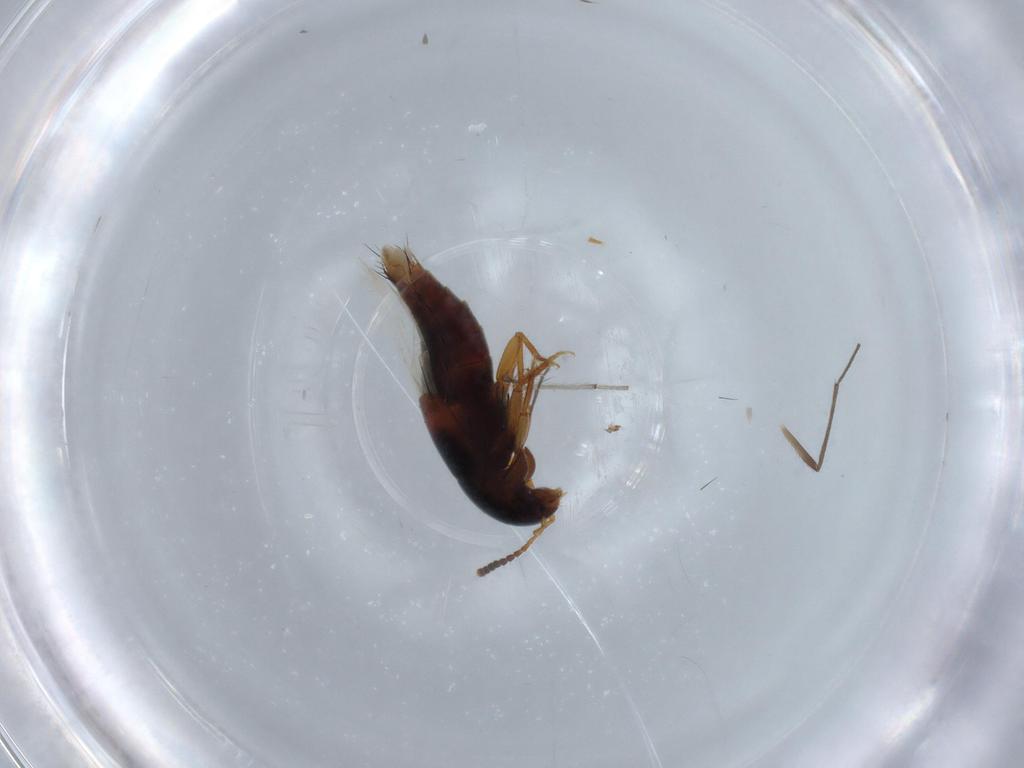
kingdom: Animalia
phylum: Arthropoda
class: Insecta
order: Coleoptera
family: Staphylinidae
